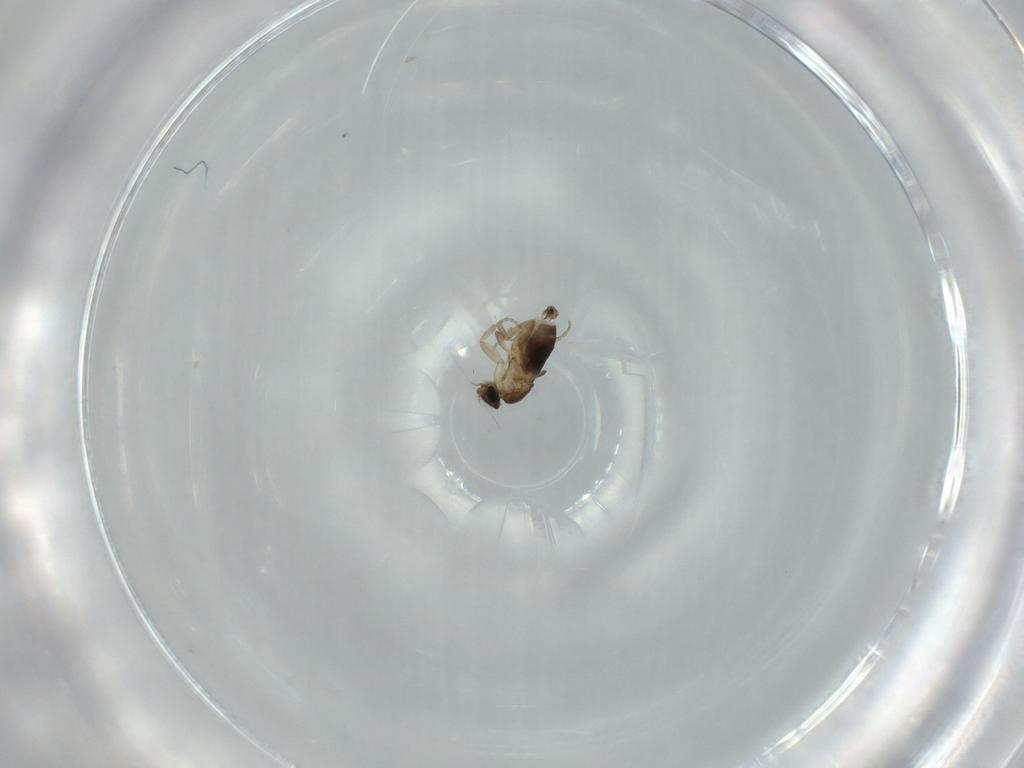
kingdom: Animalia
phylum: Arthropoda
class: Insecta
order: Diptera
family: Phoridae
